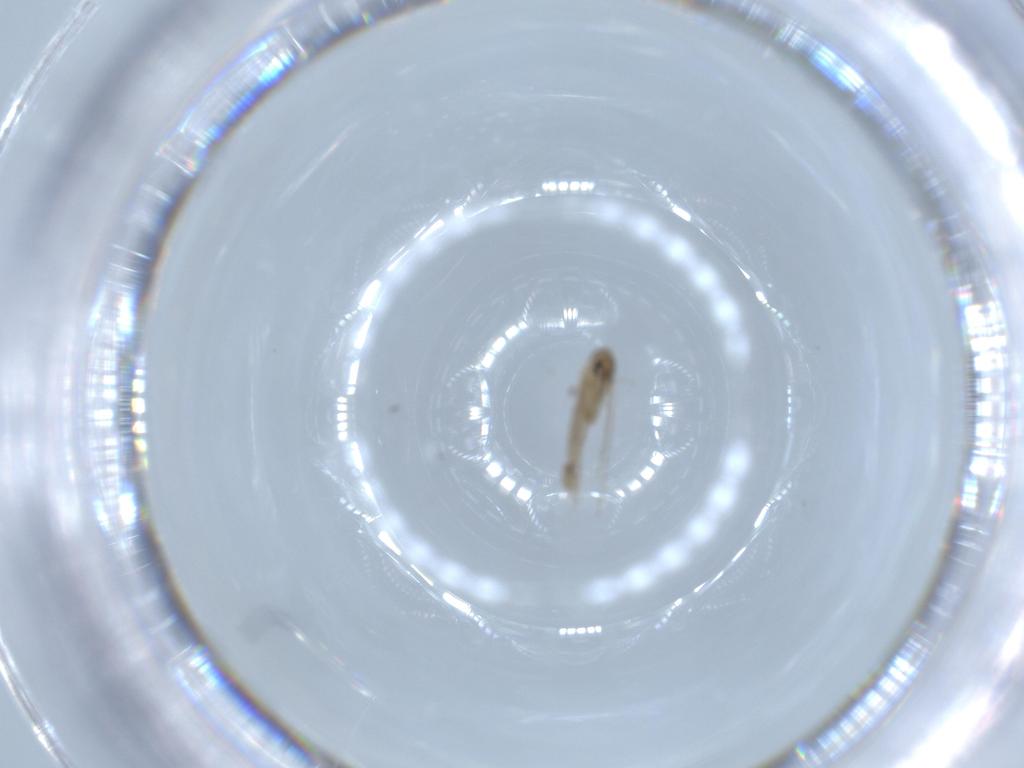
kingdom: Animalia
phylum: Arthropoda
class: Insecta
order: Diptera
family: Psychodidae
